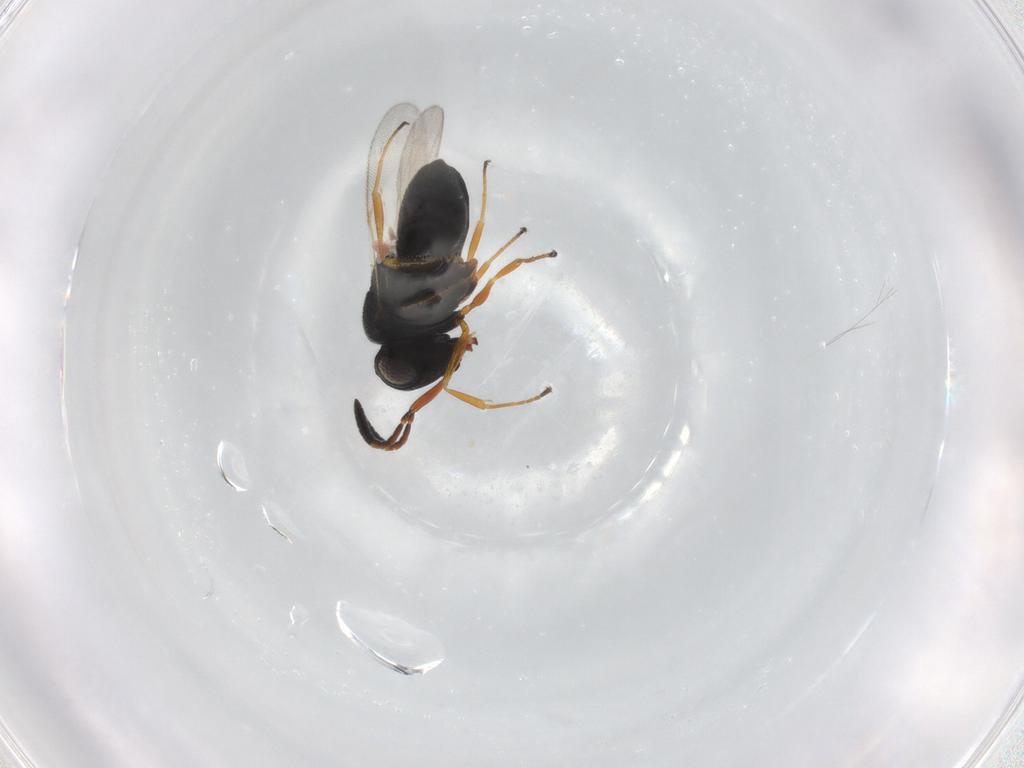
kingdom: Animalia
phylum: Arthropoda
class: Insecta
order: Hymenoptera
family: Scelionidae
